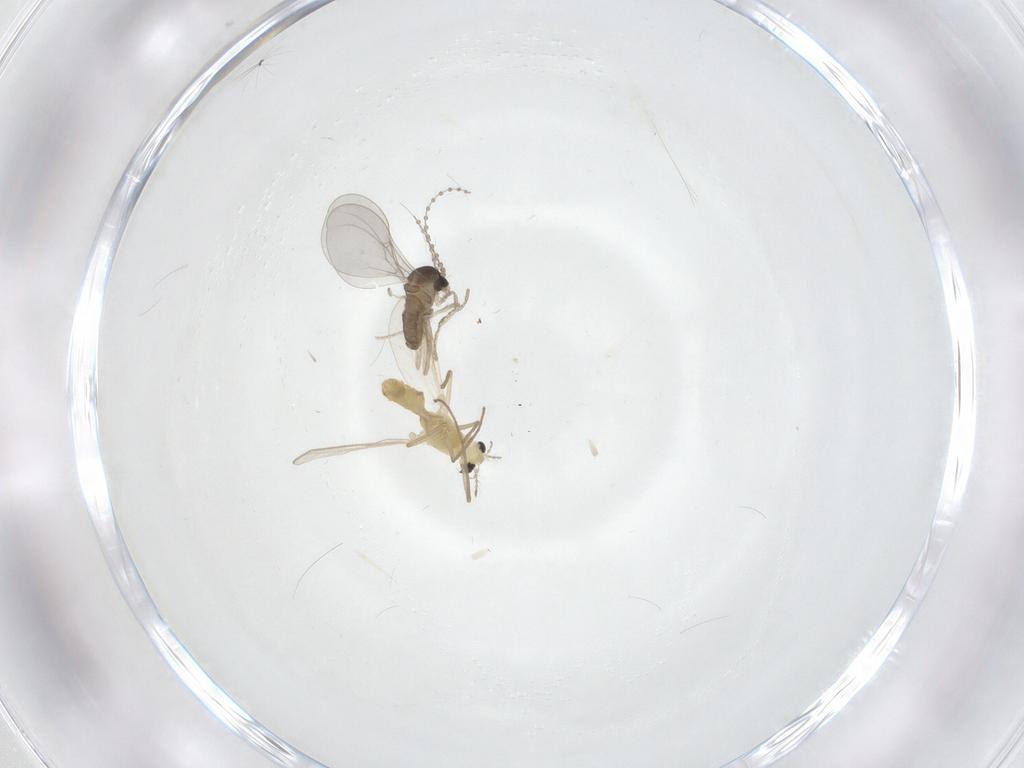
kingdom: Animalia
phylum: Arthropoda
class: Insecta
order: Diptera
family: Cecidomyiidae
